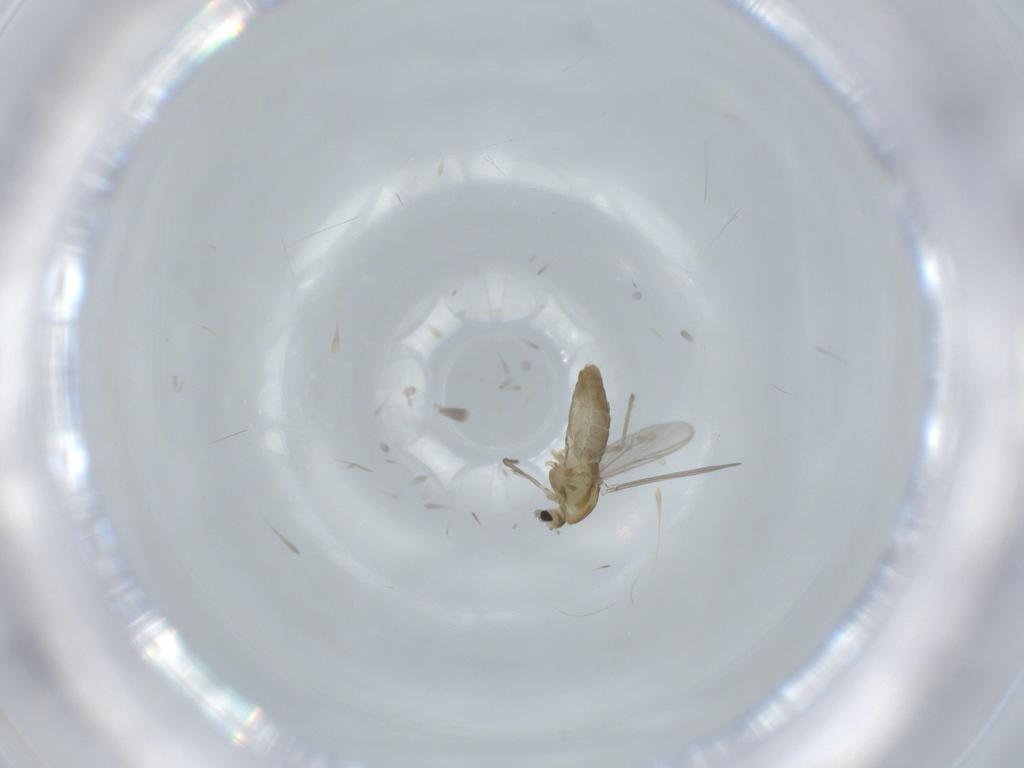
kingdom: Animalia
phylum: Arthropoda
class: Insecta
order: Diptera
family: Chironomidae
